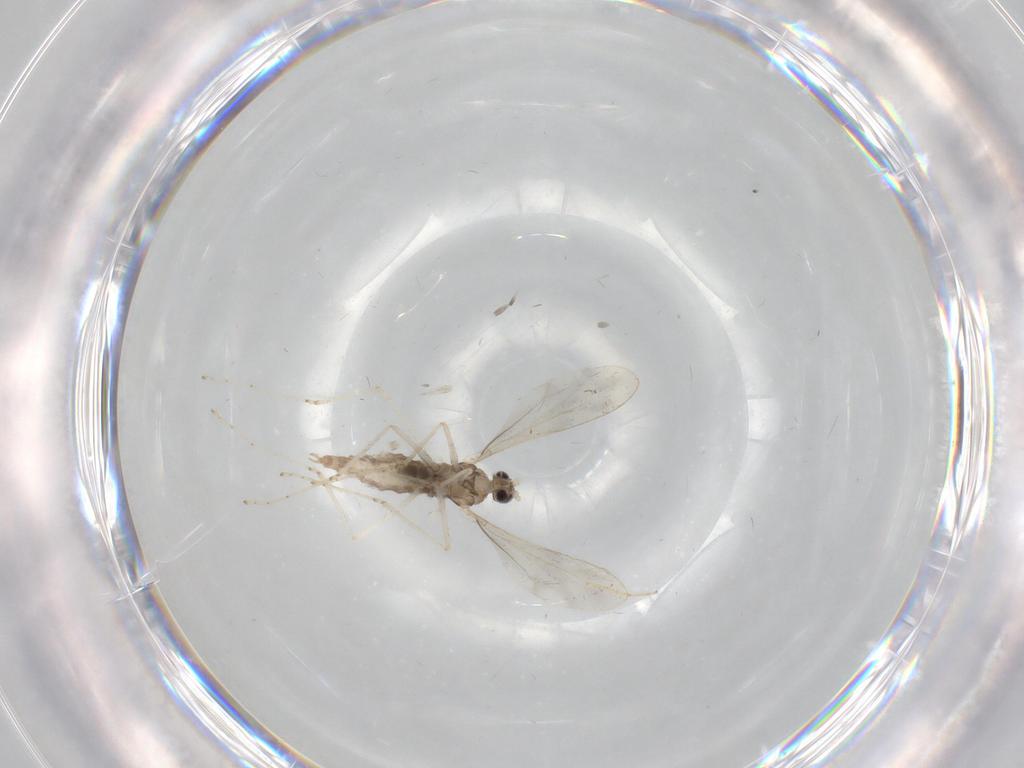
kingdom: Animalia
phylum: Arthropoda
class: Insecta
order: Diptera
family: Cecidomyiidae
